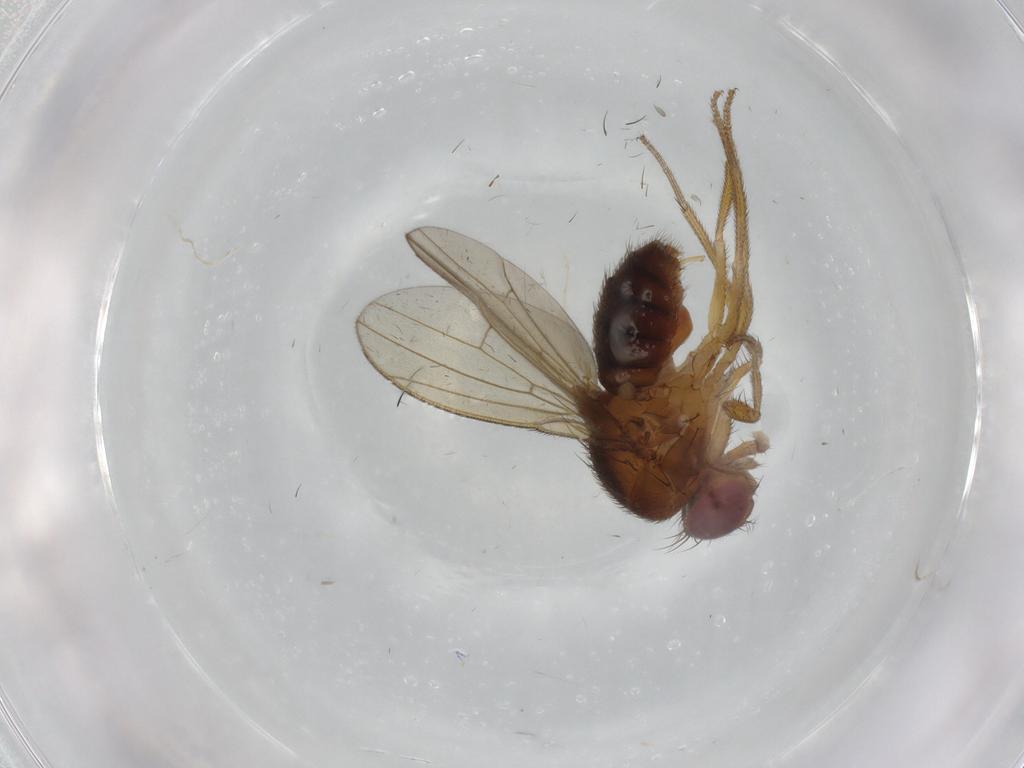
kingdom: Animalia
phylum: Arthropoda
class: Insecta
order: Diptera
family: Drosophilidae
